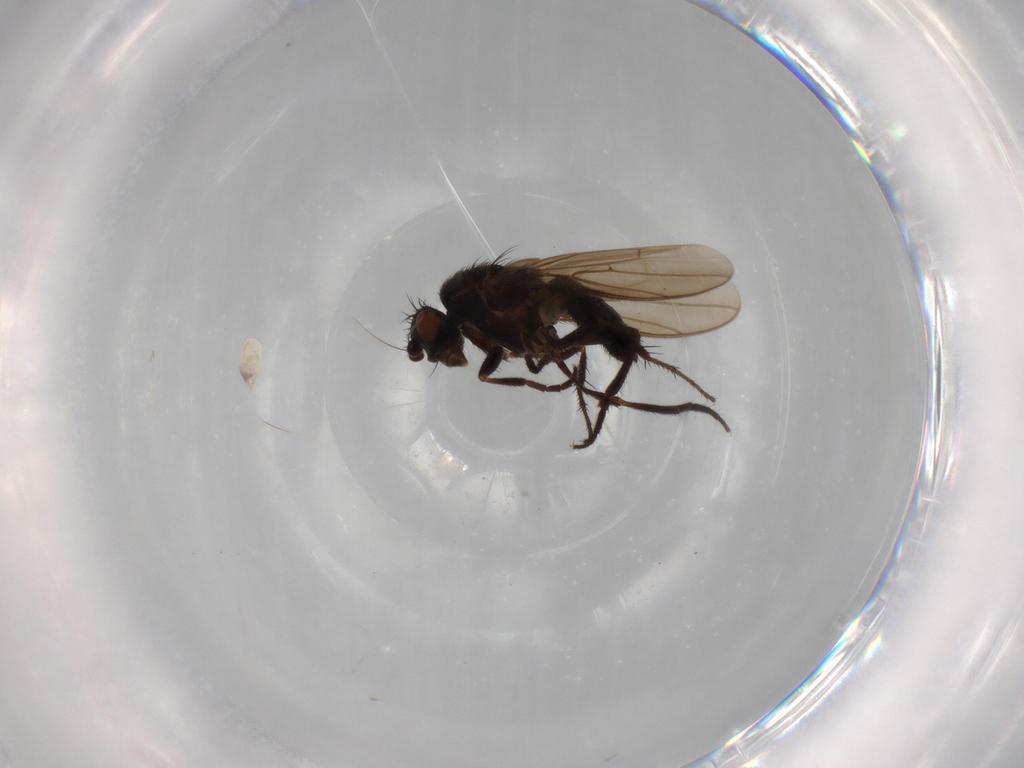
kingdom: Animalia
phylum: Arthropoda
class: Insecta
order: Diptera
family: Sphaeroceridae
